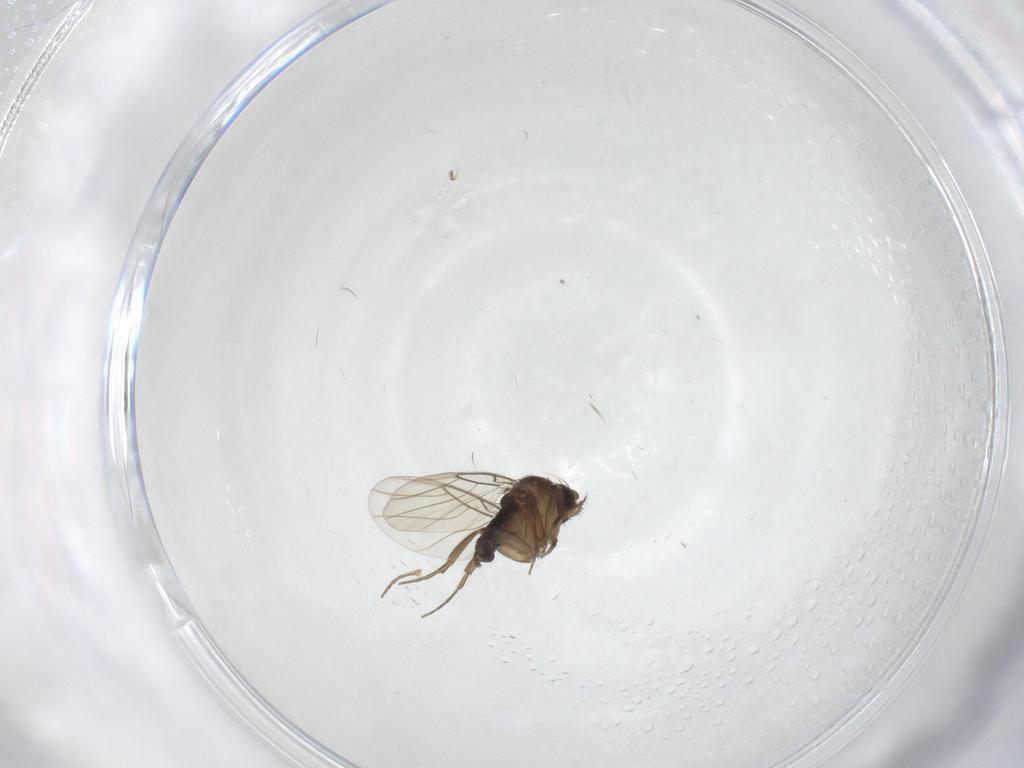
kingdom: Animalia
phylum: Arthropoda
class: Insecta
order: Diptera
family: Phoridae
